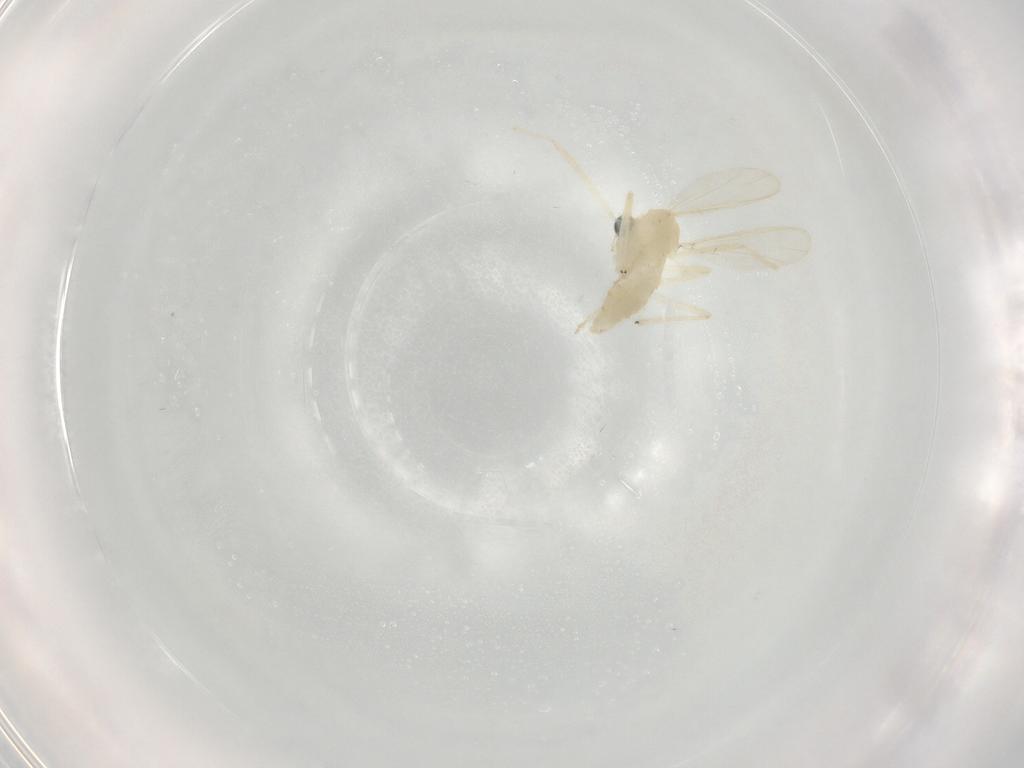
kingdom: Animalia
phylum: Arthropoda
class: Insecta
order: Diptera
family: Chironomidae
